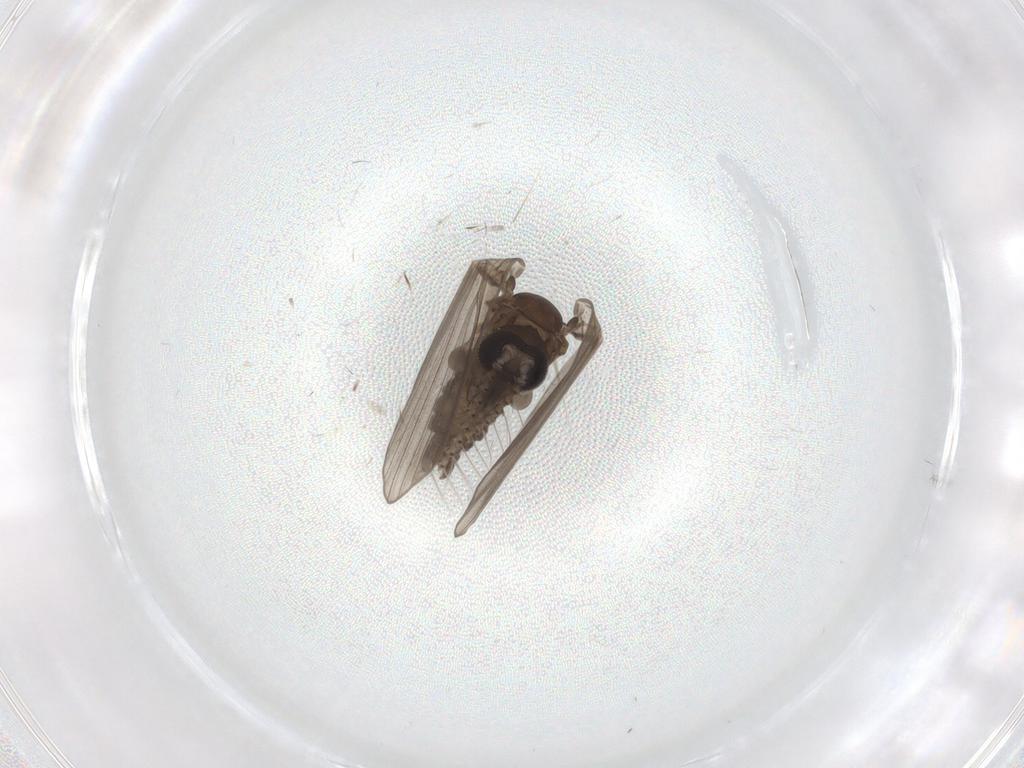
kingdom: Animalia
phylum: Arthropoda
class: Insecta
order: Diptera
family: Psychodidae
